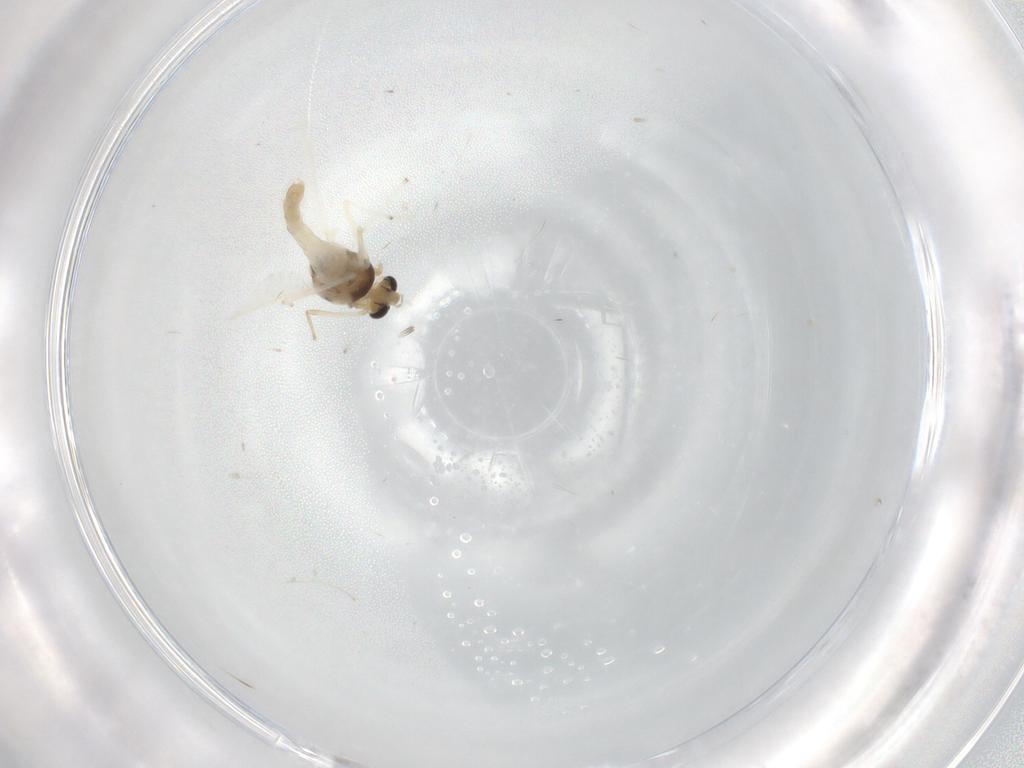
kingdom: Animalia
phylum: Arthropoda
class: Insecta
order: Diptera
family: Chironomidae
